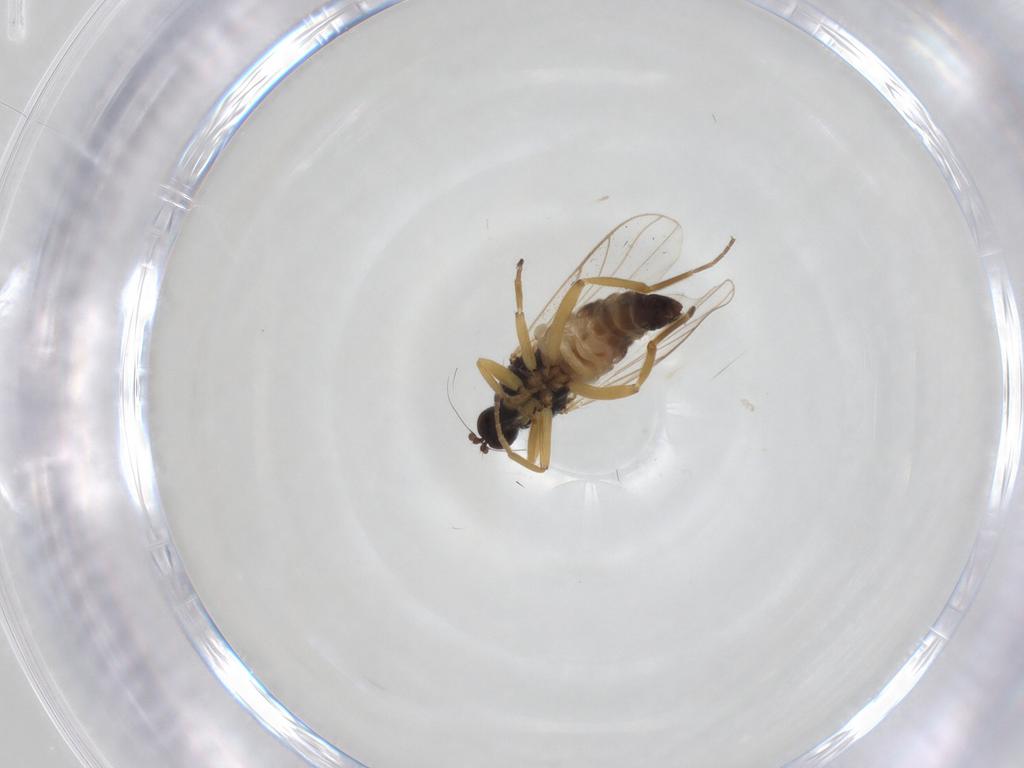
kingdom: Animalia
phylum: Arthropoda
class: Insecta
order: Diptera
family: Hybotidae
